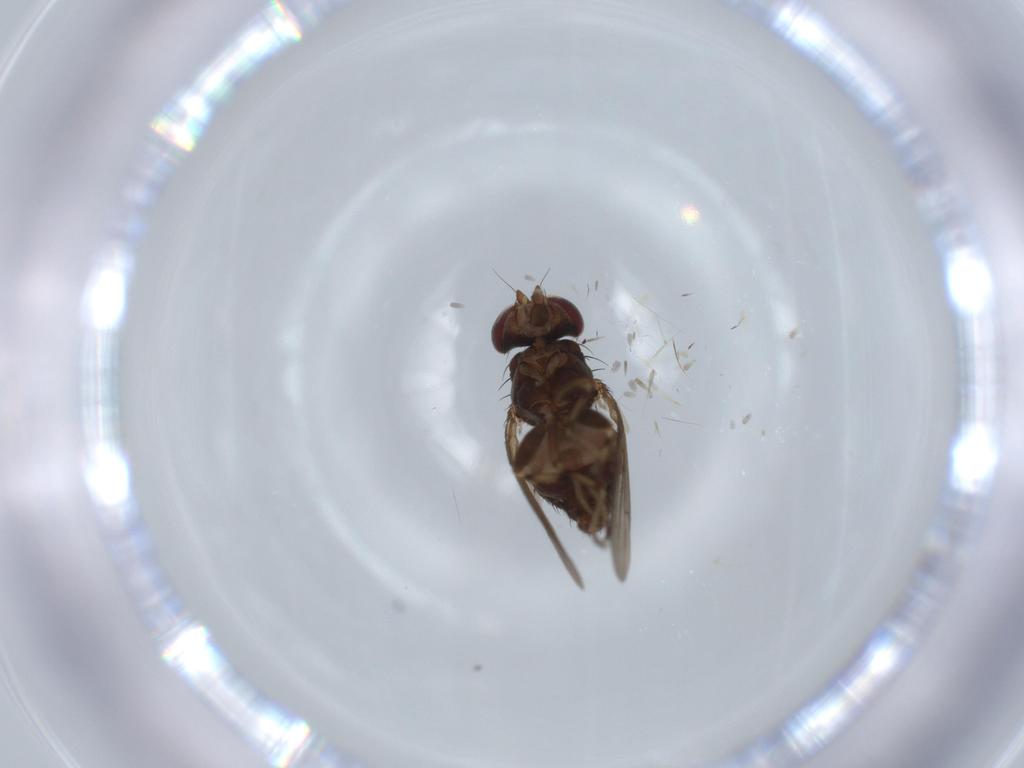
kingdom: Animalia
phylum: Arthropoda
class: Insecta
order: Diptera
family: Heleomyzidae
